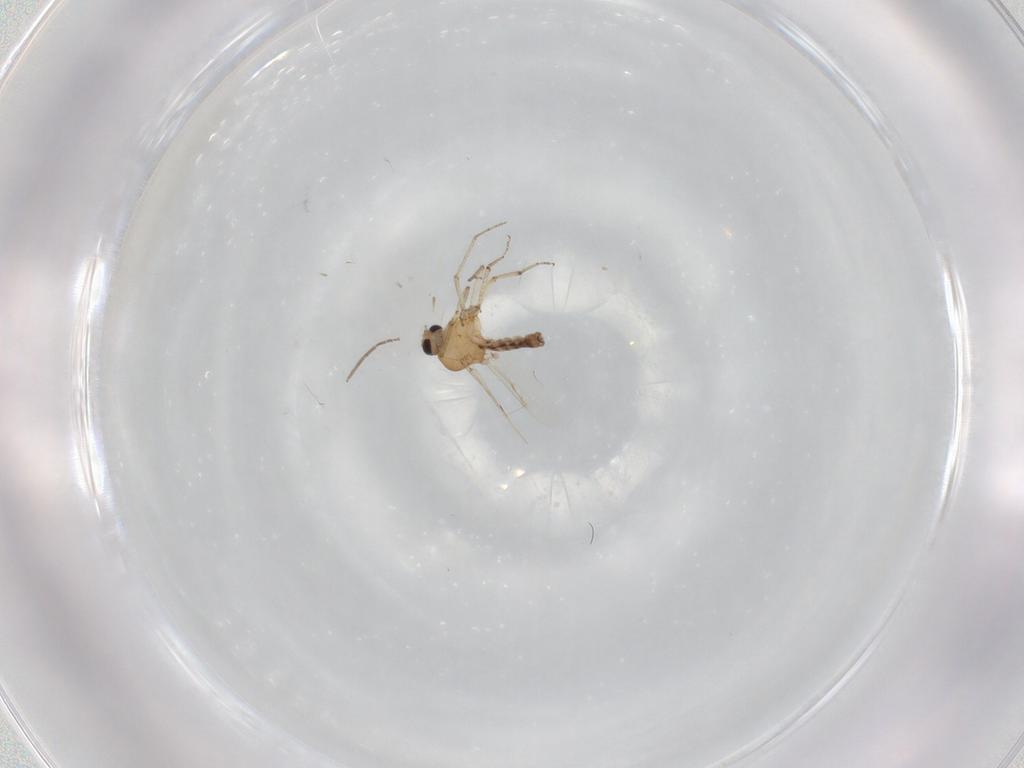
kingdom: Animalia
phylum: Arthropoda
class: Insecta
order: Diptera
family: Ceratopogonidae
